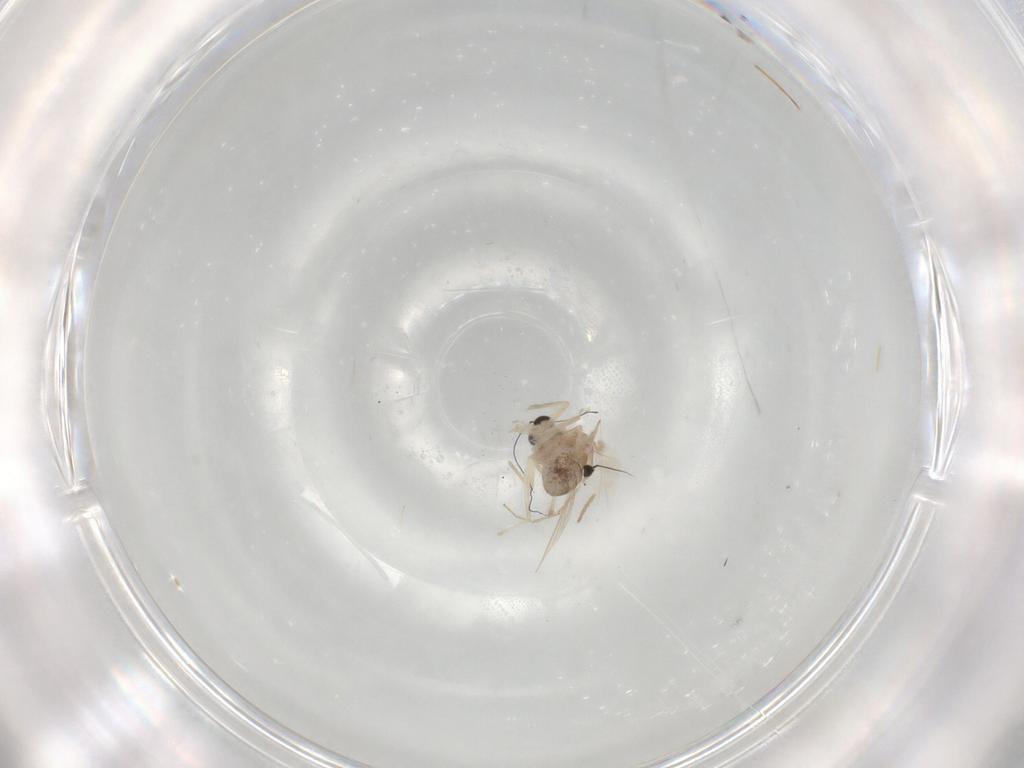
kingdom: Animalia
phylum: Arthropoda
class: Insecta
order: Diptera
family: Chironomidae
